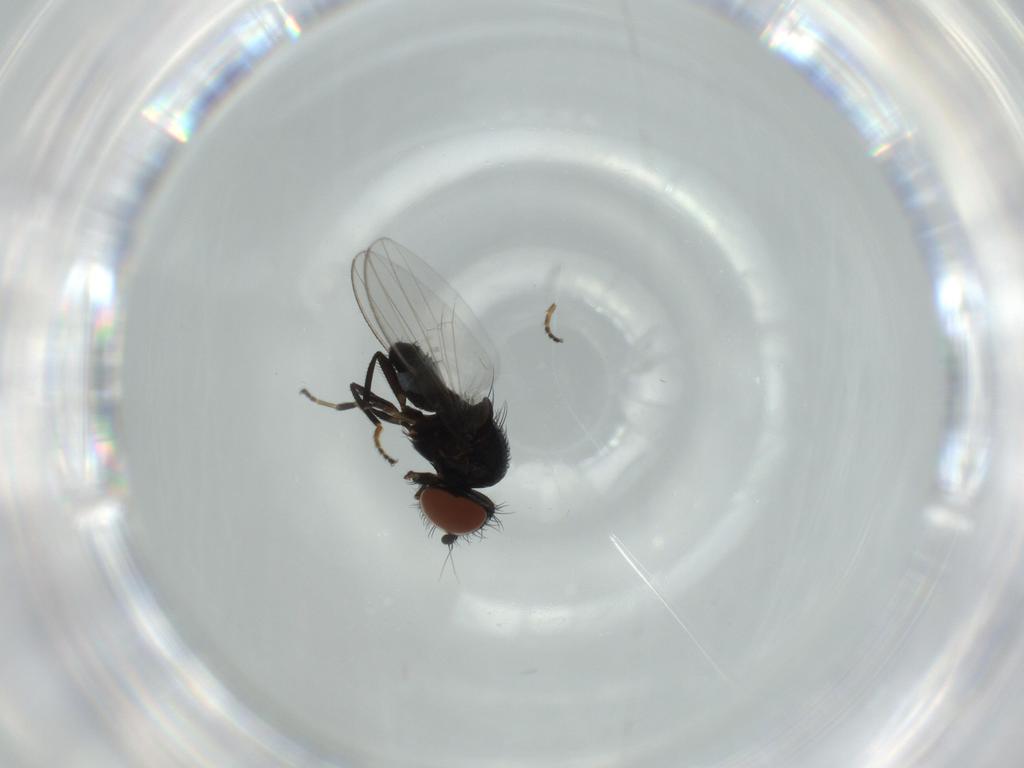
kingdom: Animalia
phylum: Arthropoda
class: Insecta
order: Diptera
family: Milichiidae
